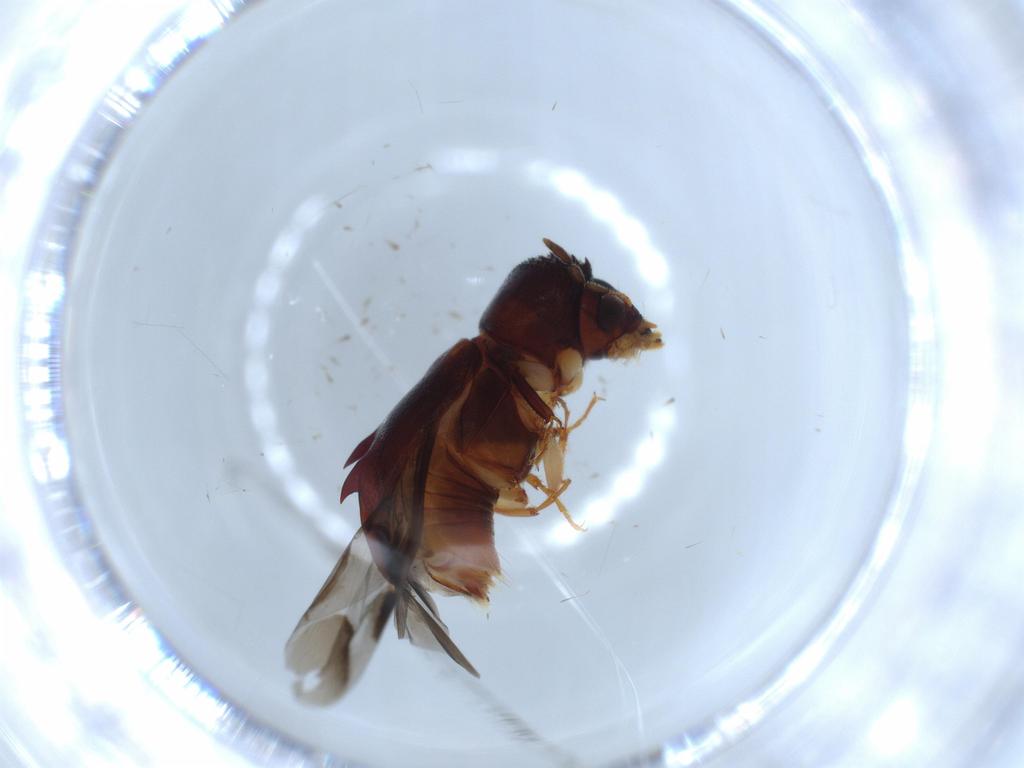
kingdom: Animalia
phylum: Arthropoda
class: Insecta
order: Coleoptera
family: Bostrichidae
